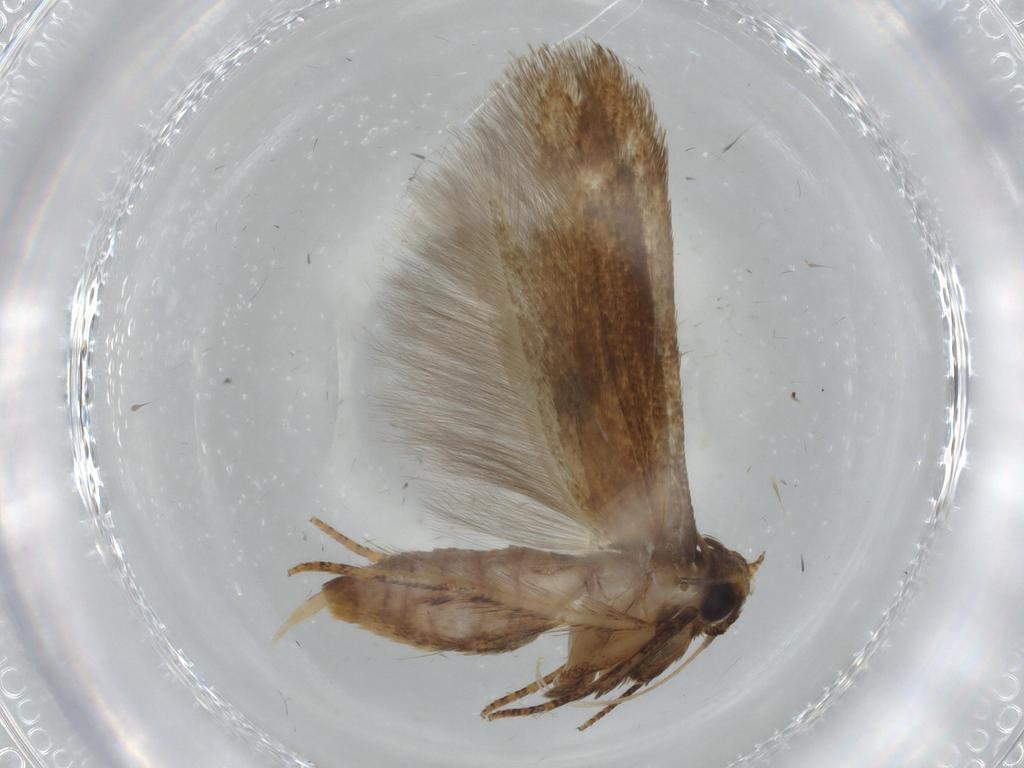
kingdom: Animalia
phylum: Arthropoda
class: Insecta
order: Lepidoptera
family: Blastobasidae
